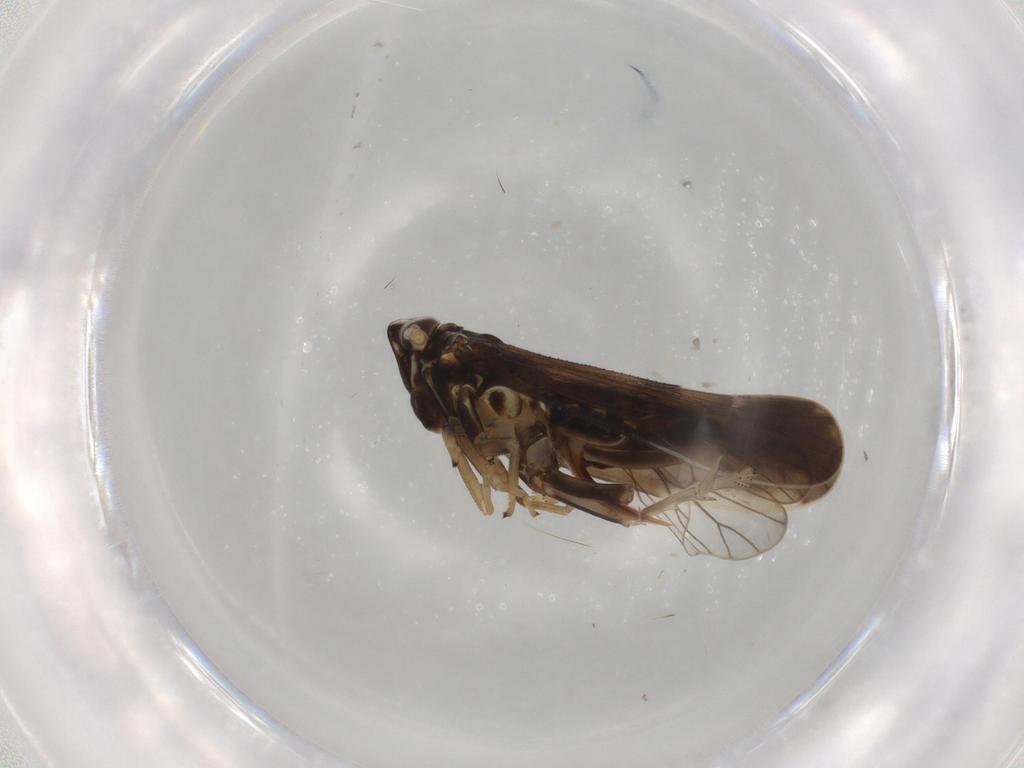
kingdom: Animalia
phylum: Arthropoda
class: Insecta
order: Hemiptera
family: Delphacidae
